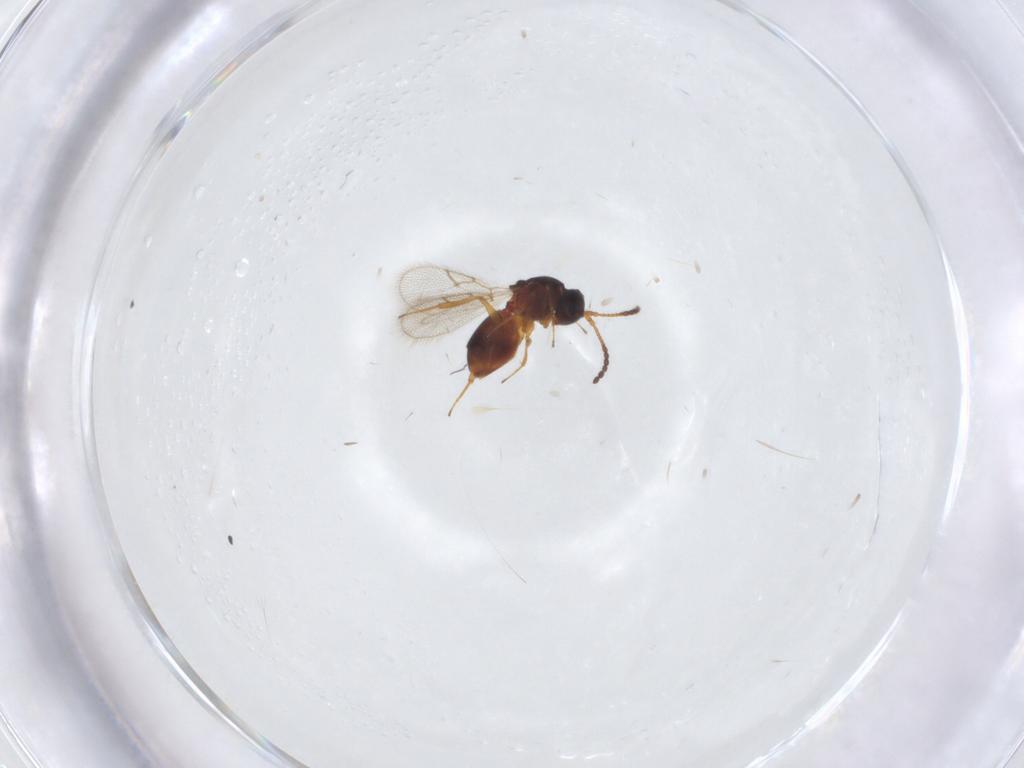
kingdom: Animalia
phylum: Arthropoda
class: Insecta
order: Hymenoptera
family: Figitidae
